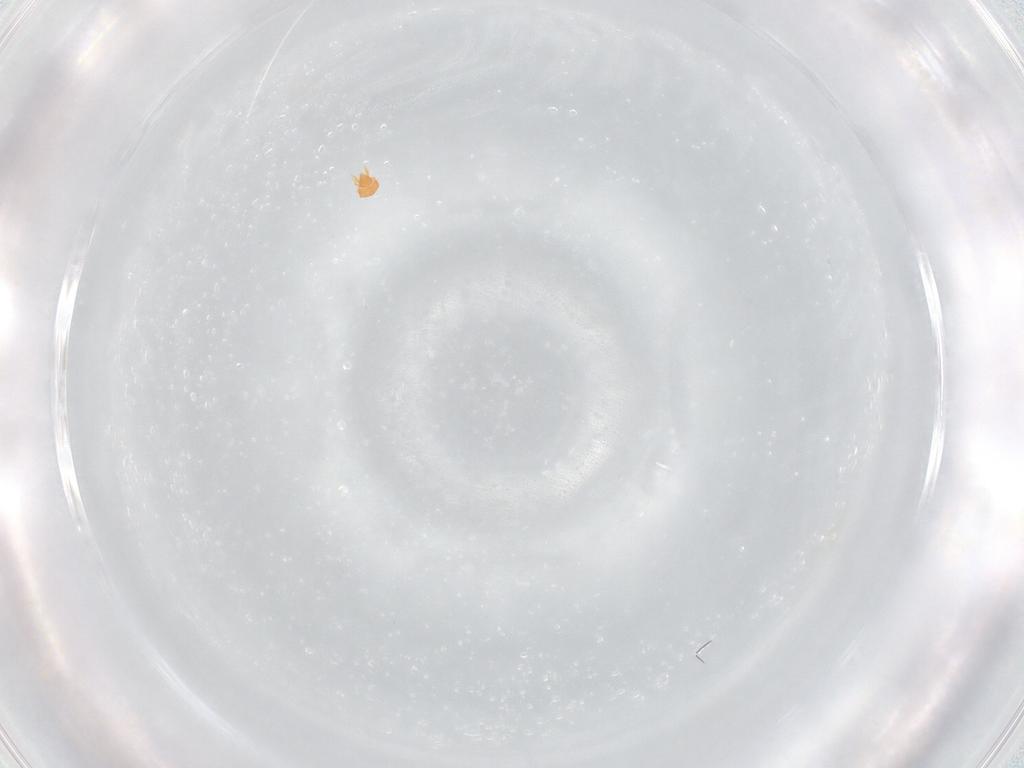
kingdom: Animalia
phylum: Arthropoda
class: Arachnida
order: Sarcoptiformes
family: Brachychthoniidae
